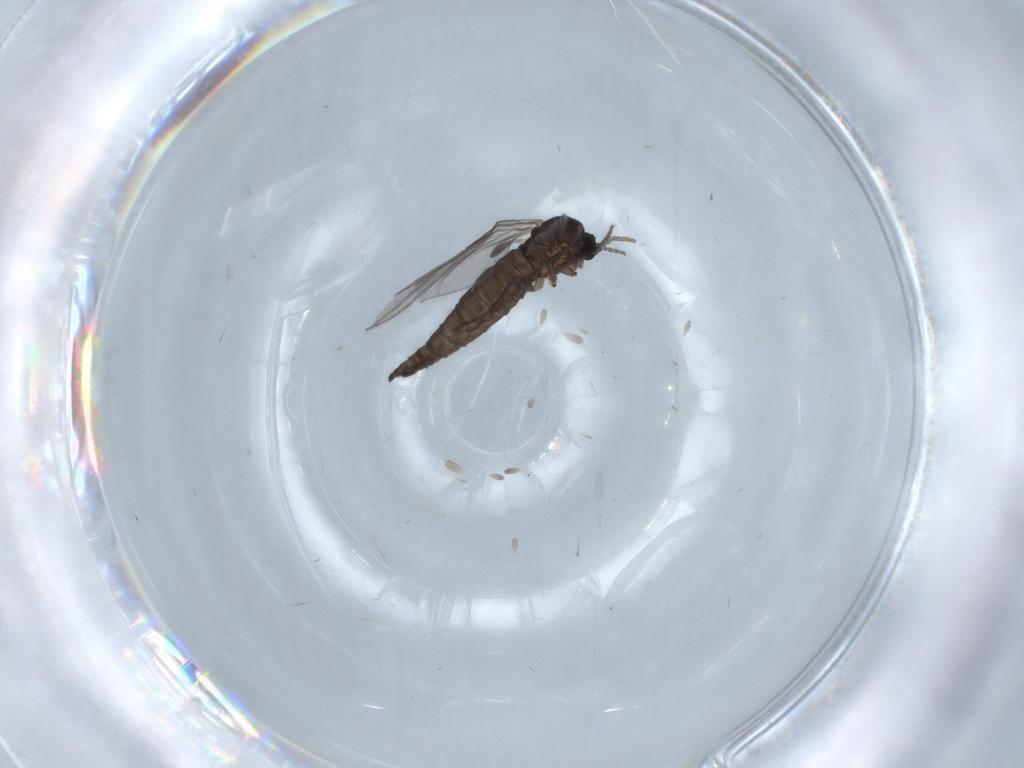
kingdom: Animalia
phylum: Arthropoda
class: Insecta
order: Diptera
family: Sciaridae
